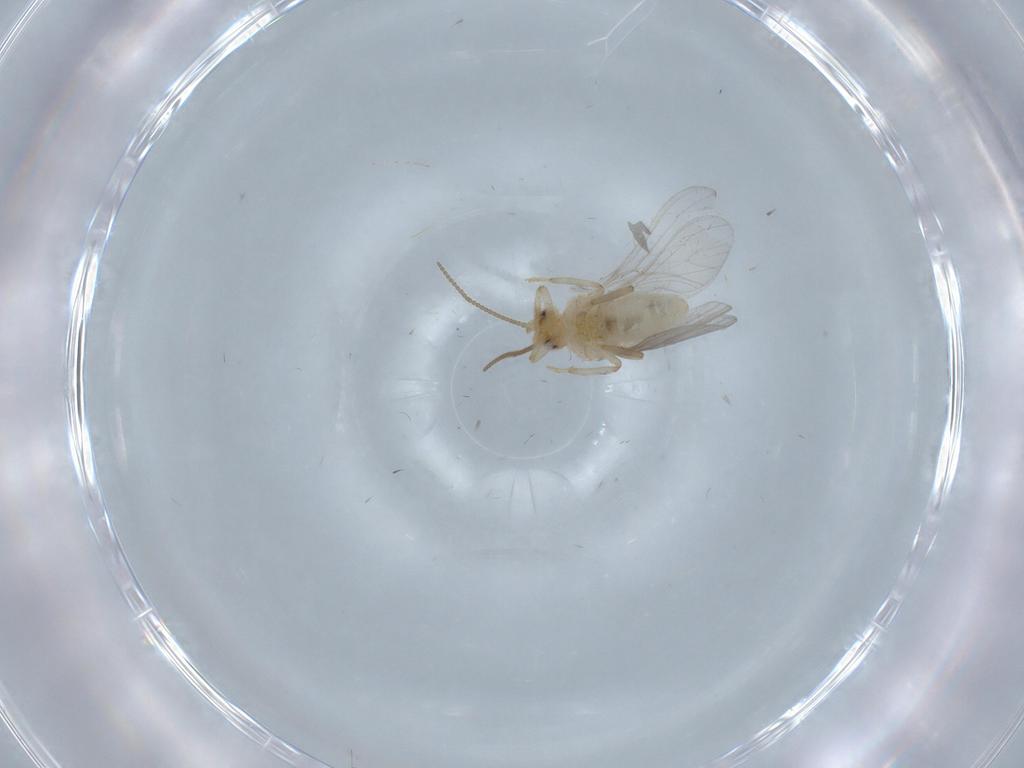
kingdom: Animalia
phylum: Arthropoda
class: Insecta
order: Neuroptera
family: Coniopterygidae
